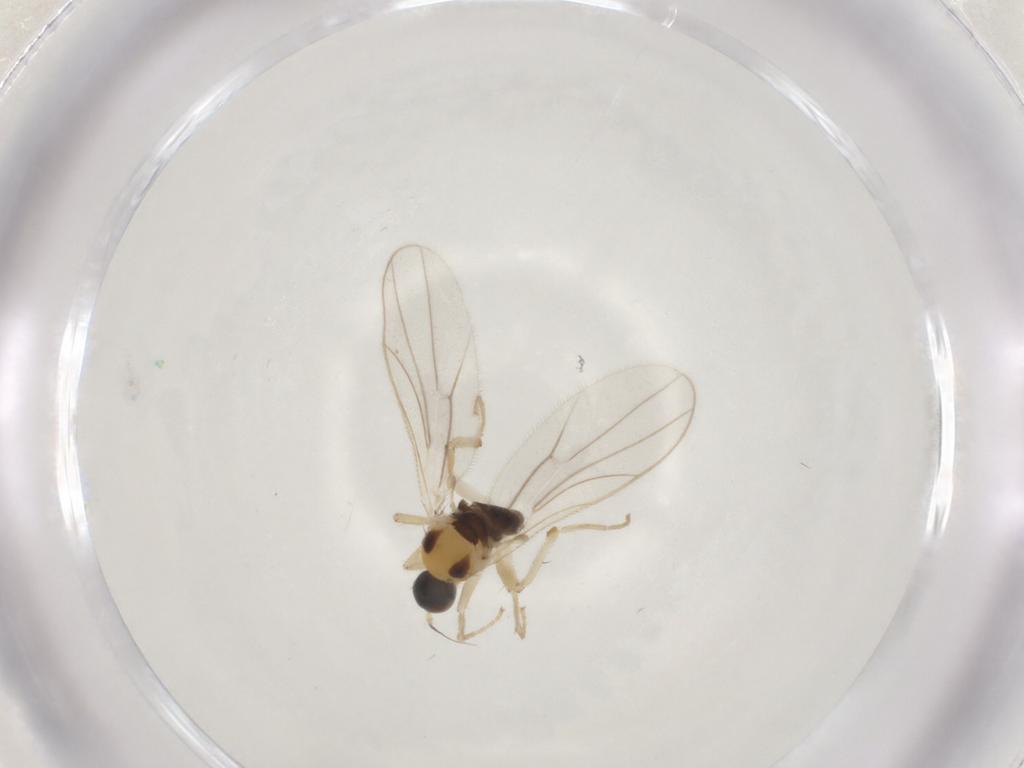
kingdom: Animalia
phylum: Arthropoda
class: Insecta
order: Diptera
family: Hybotidae
